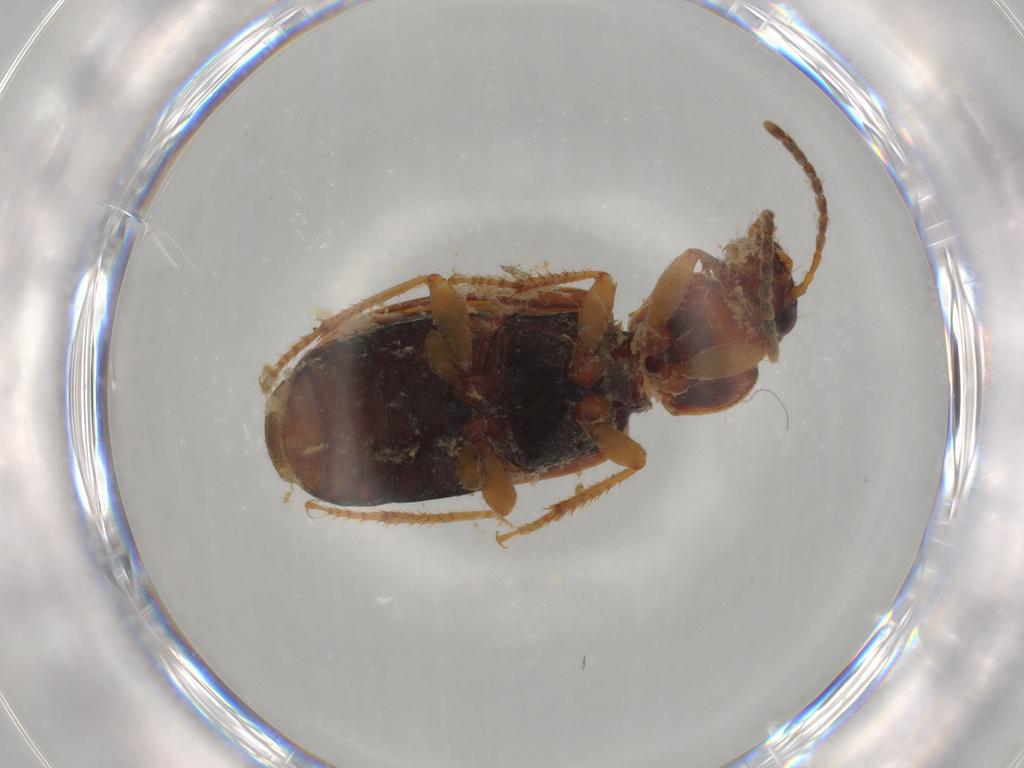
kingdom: Animalia
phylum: Arthropoda
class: Insecta
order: Coleoptera
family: Carabidae
